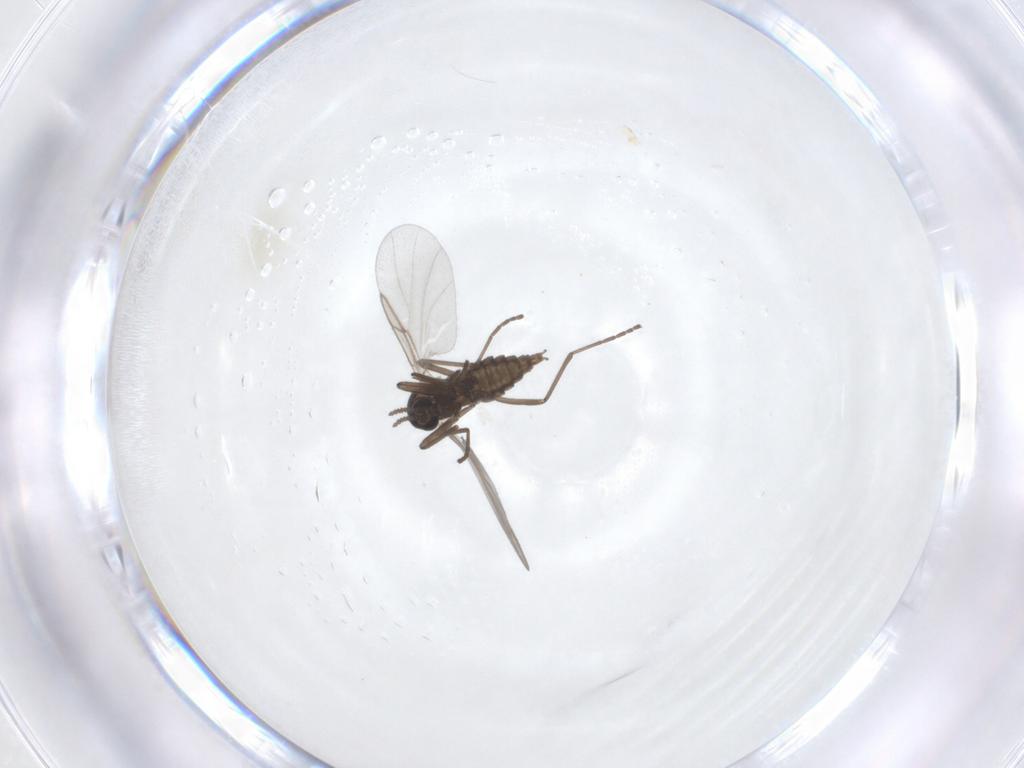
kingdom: Animalia
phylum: Arthropoda
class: Insecta
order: Diptera
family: Cecidomyiidae
